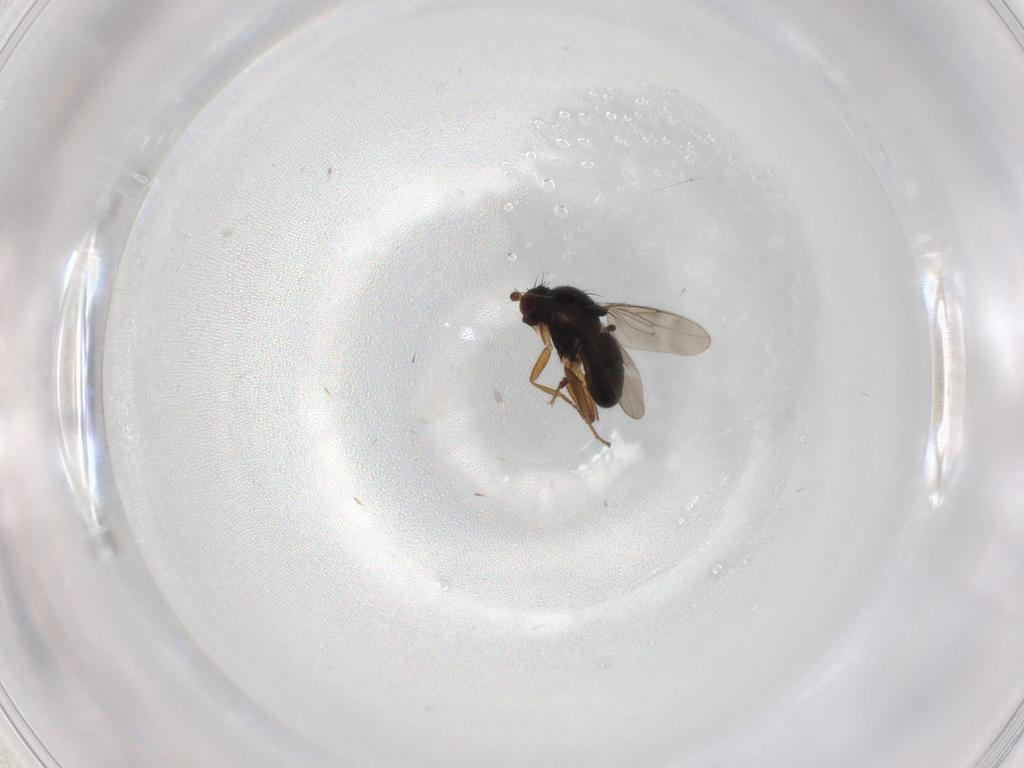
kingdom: Animalia
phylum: Arthropoda
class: Insecta
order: Diptera
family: Sphaeroceridae
